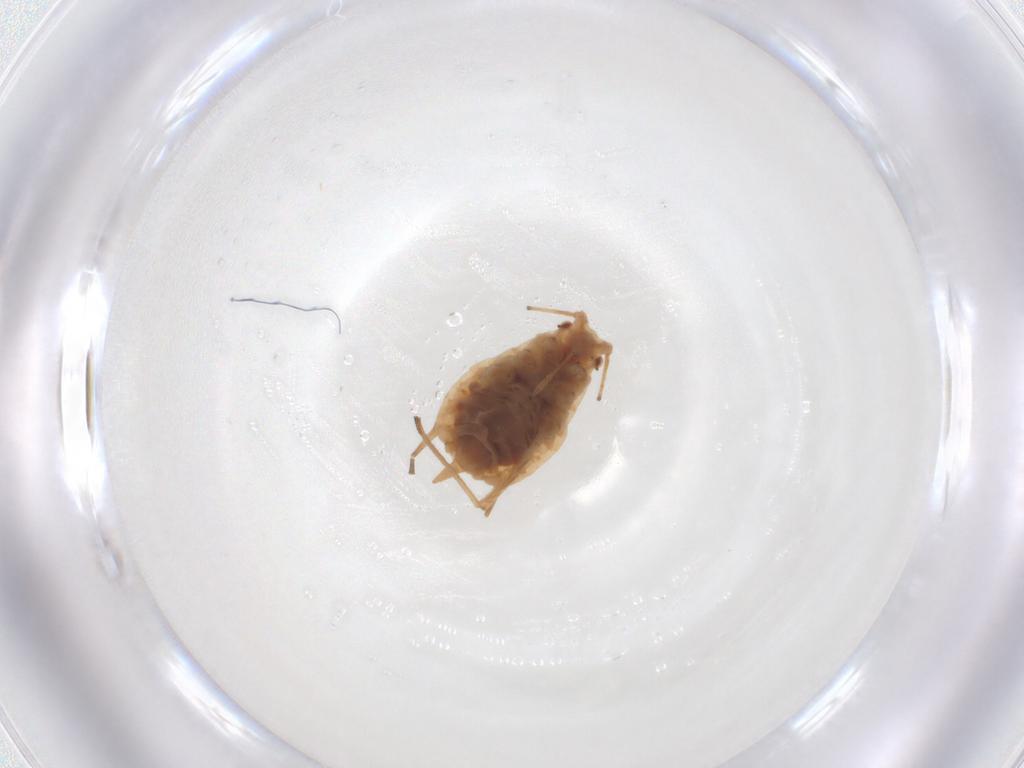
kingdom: Animalia
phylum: Arthropoda
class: Insecta
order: Hemiptera
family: Aphididae
